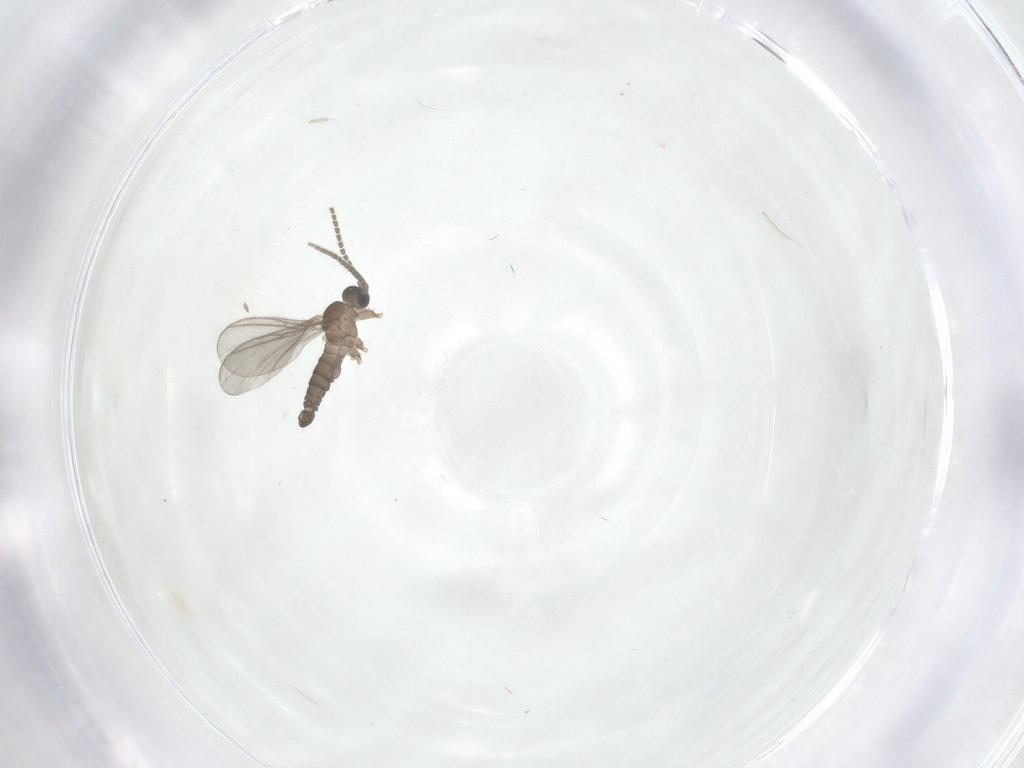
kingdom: Animalia
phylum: Arthropoda
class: Insecta
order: Diptera
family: Sciaridae
